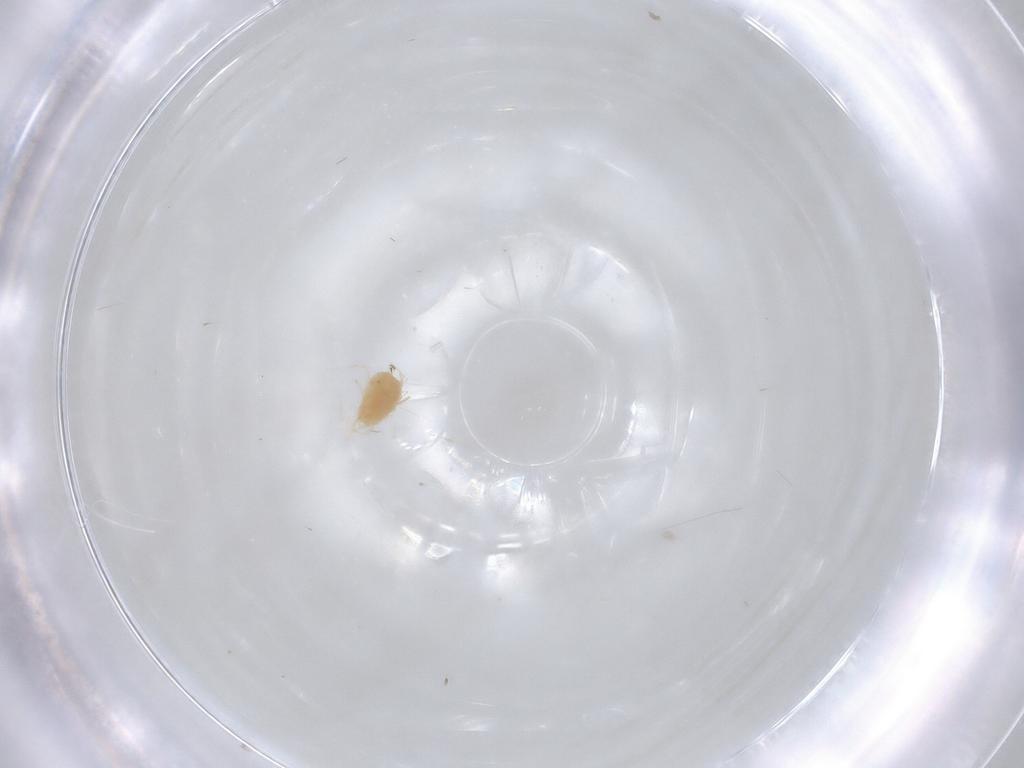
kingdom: Animalia
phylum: Arthropoda
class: Arachnida
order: Trombidiformes
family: Tetranychidae
